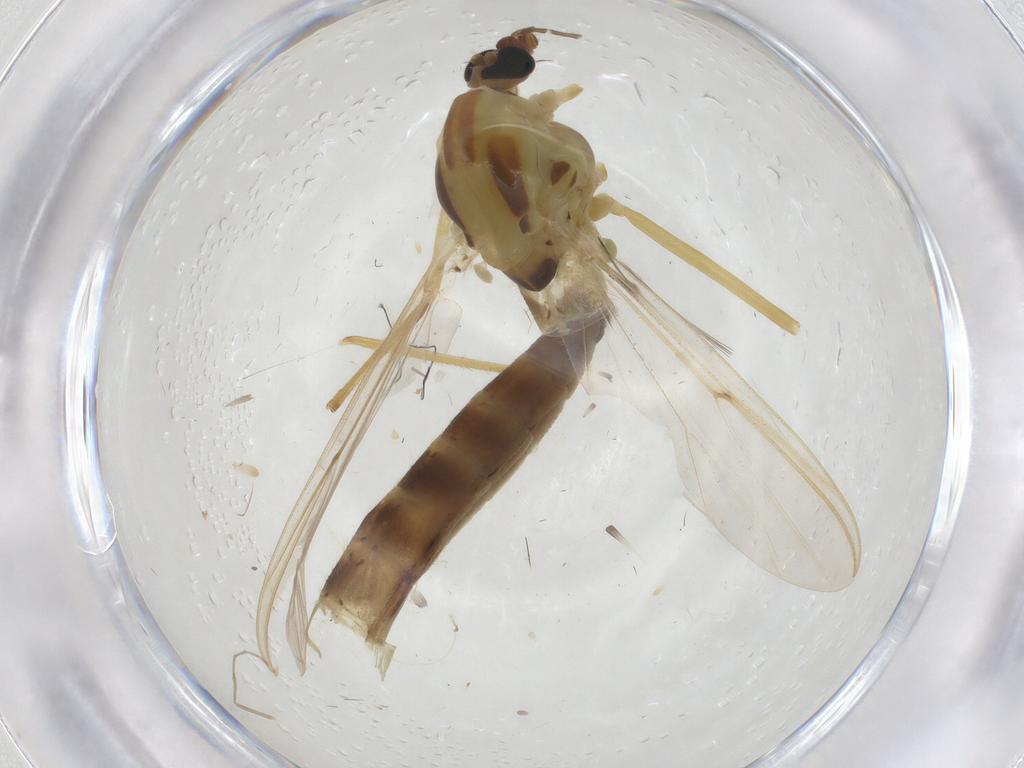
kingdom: Animalia
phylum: Arthropoda
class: Insecta
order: Diptera
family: Chironomidae
